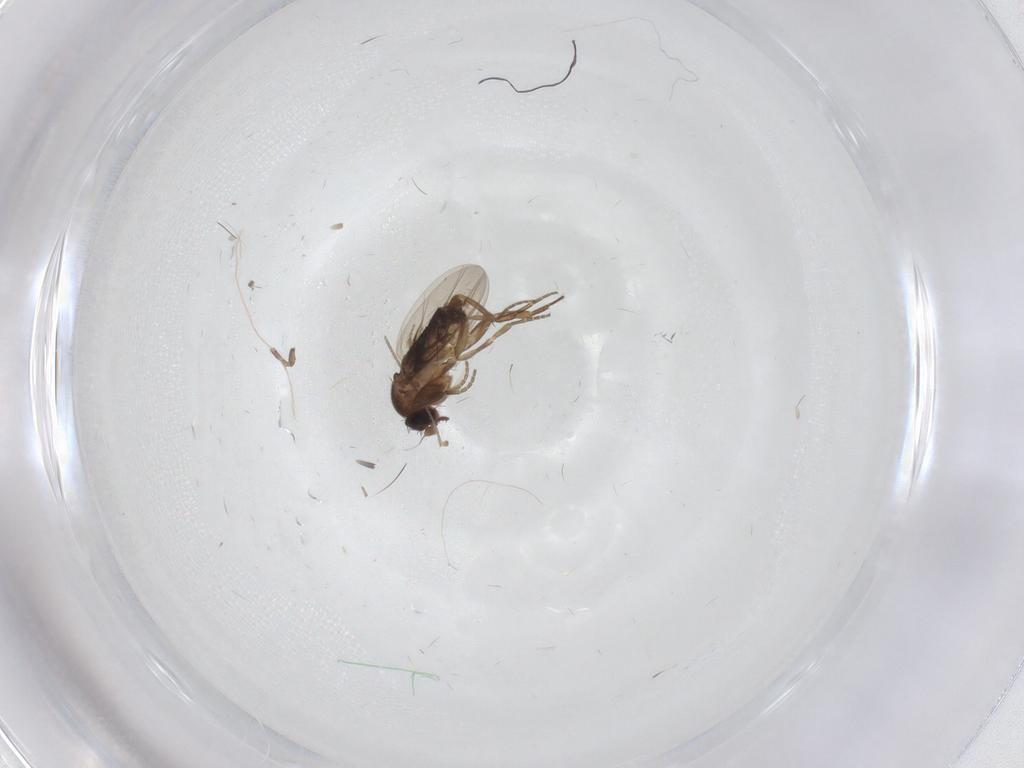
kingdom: Animalia
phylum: Arthropoda
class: Insecta
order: Diptera
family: Cecidomyiidae
